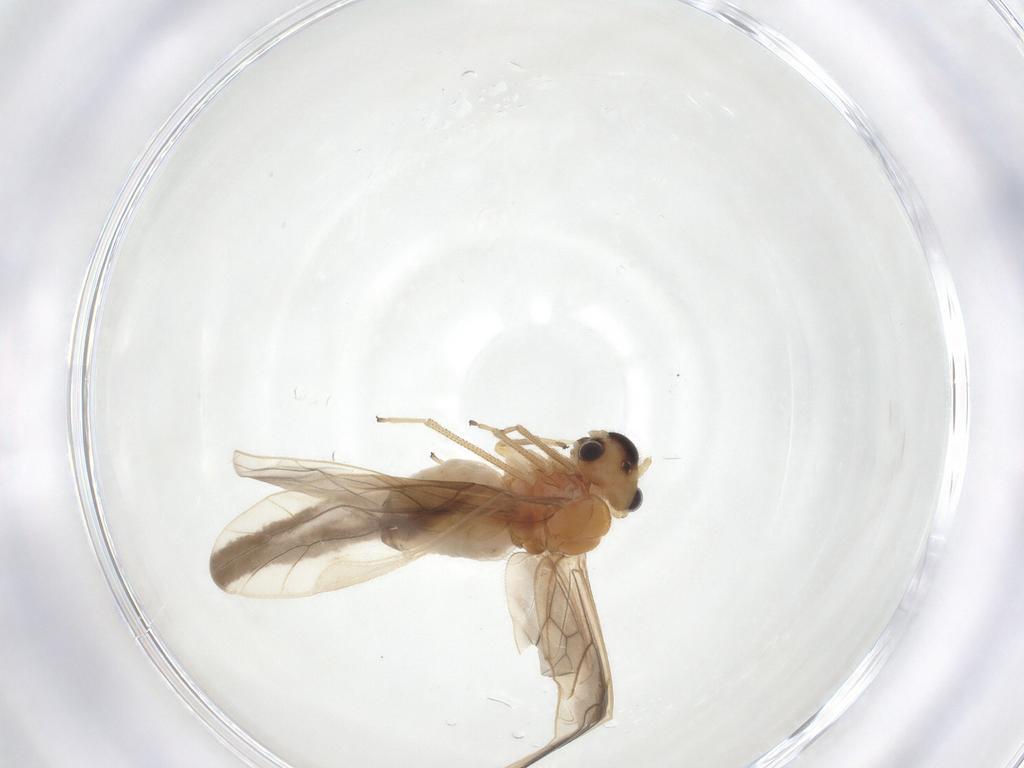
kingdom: Animalia
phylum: Arthropoda
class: Insecta
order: Psocodea
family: Caeciliusidae
